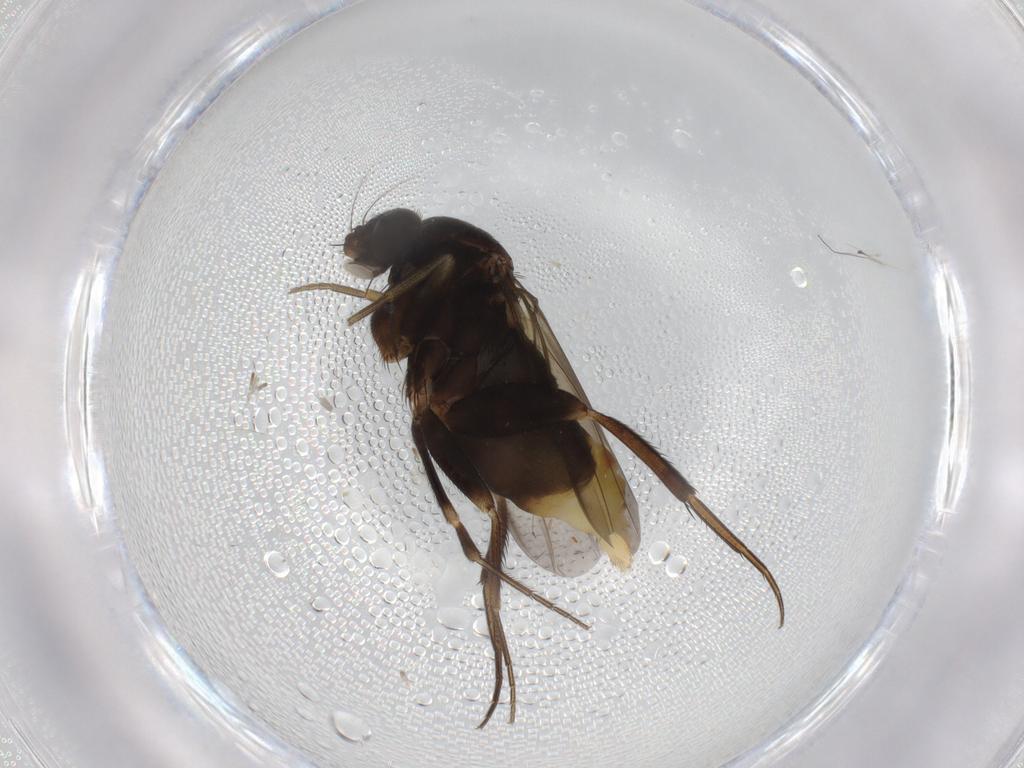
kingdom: Animalia
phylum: Arthropoda
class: Insecta
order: Diptera
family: Phoridae
